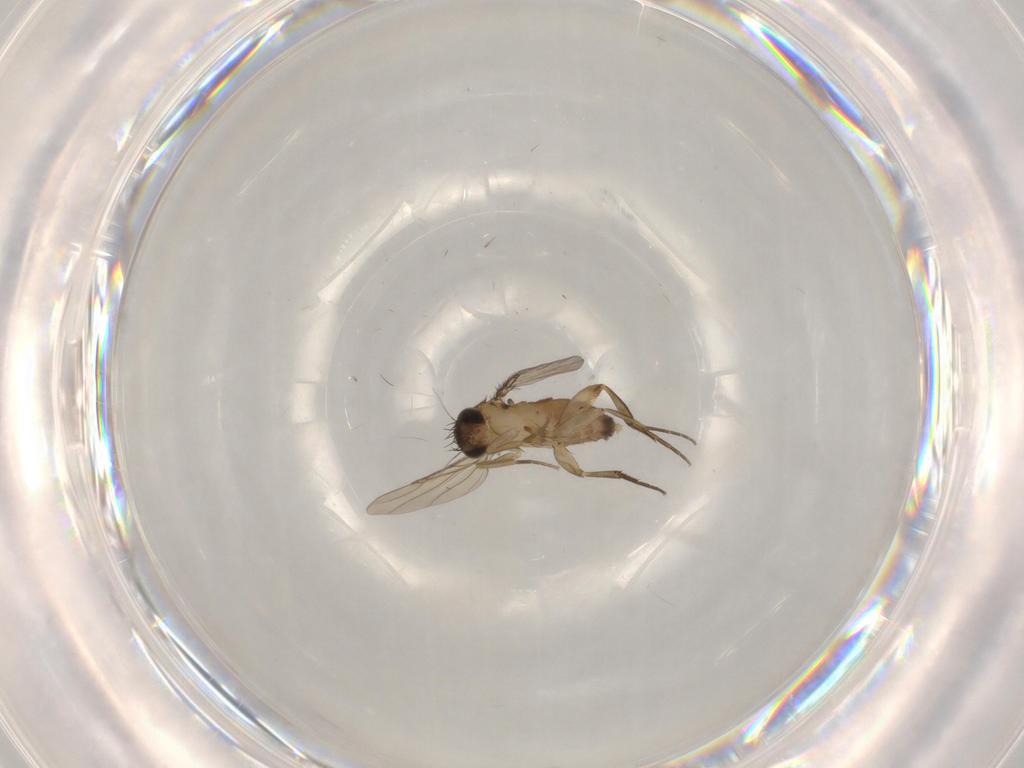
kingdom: Animalia
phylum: Arthropoda
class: Insecta
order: Diptera
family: Phoridae
